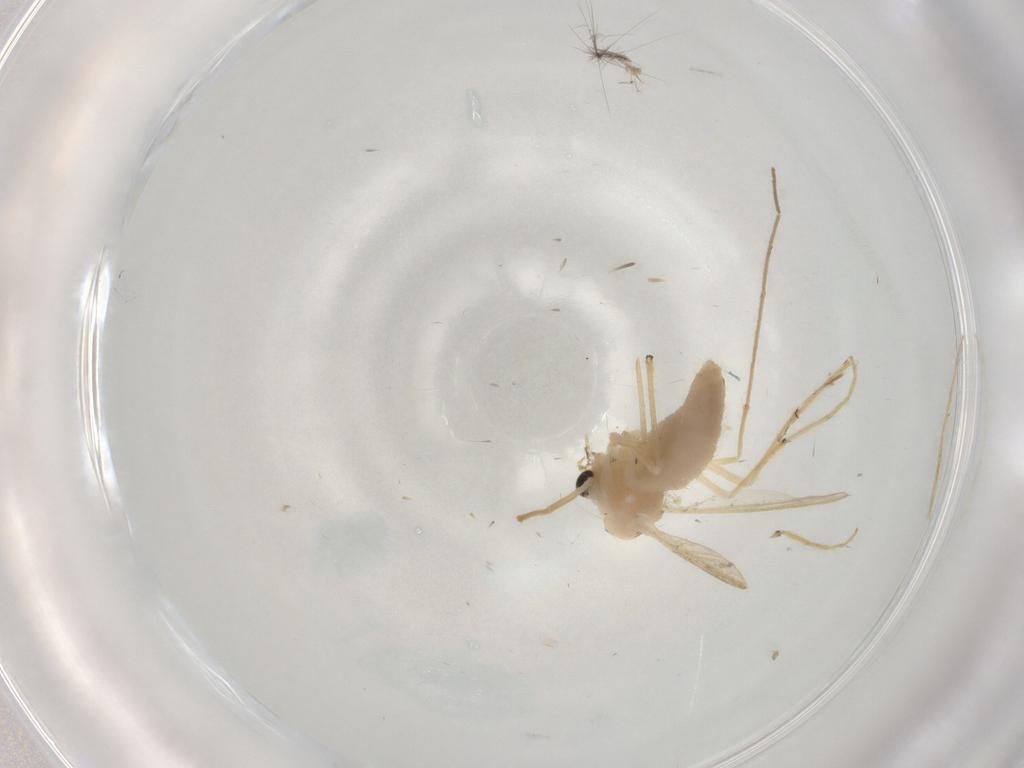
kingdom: Animalia
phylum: Arthropoda
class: Insecta
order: Diptera
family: Chironomidae
